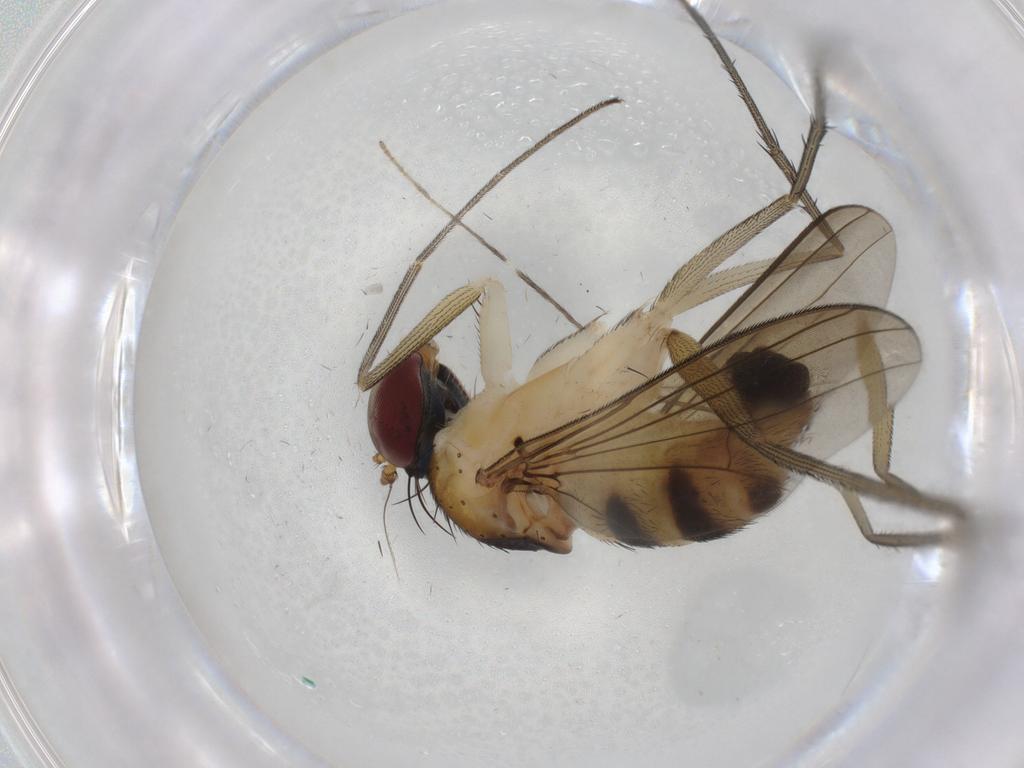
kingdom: Animalia
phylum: Arthropoda
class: Insecta
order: Diptera
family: Dolichopodidae
